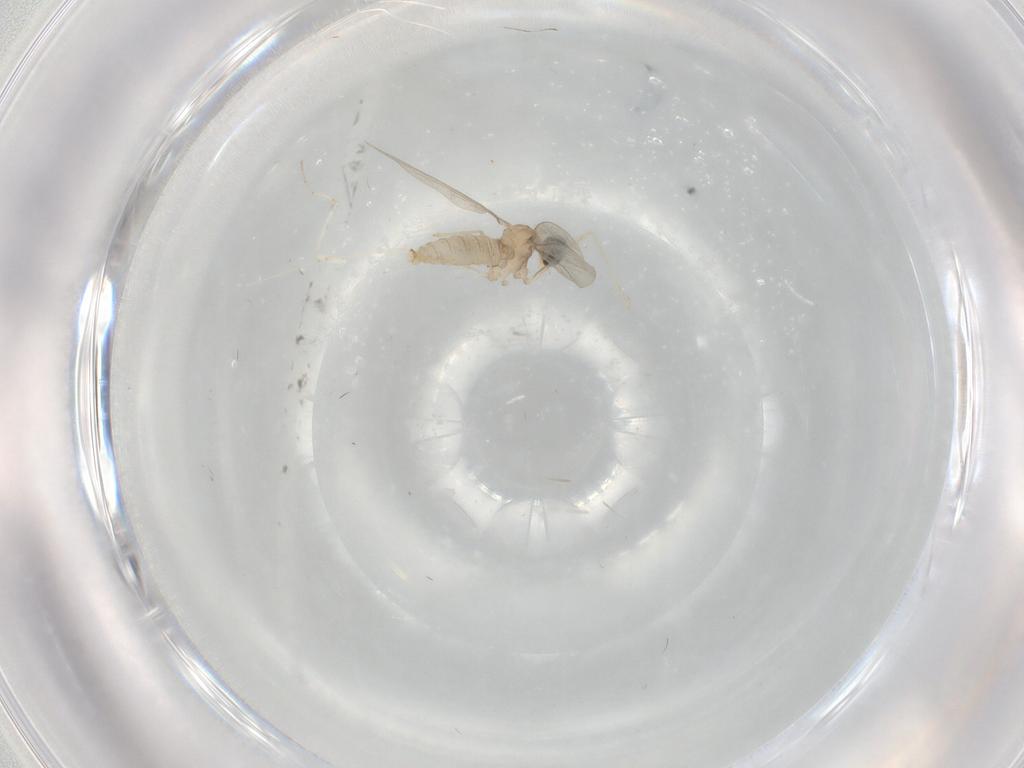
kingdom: Animalia
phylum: Arthropoda
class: Insecta
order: Diptera
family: Cecidomyiidae
